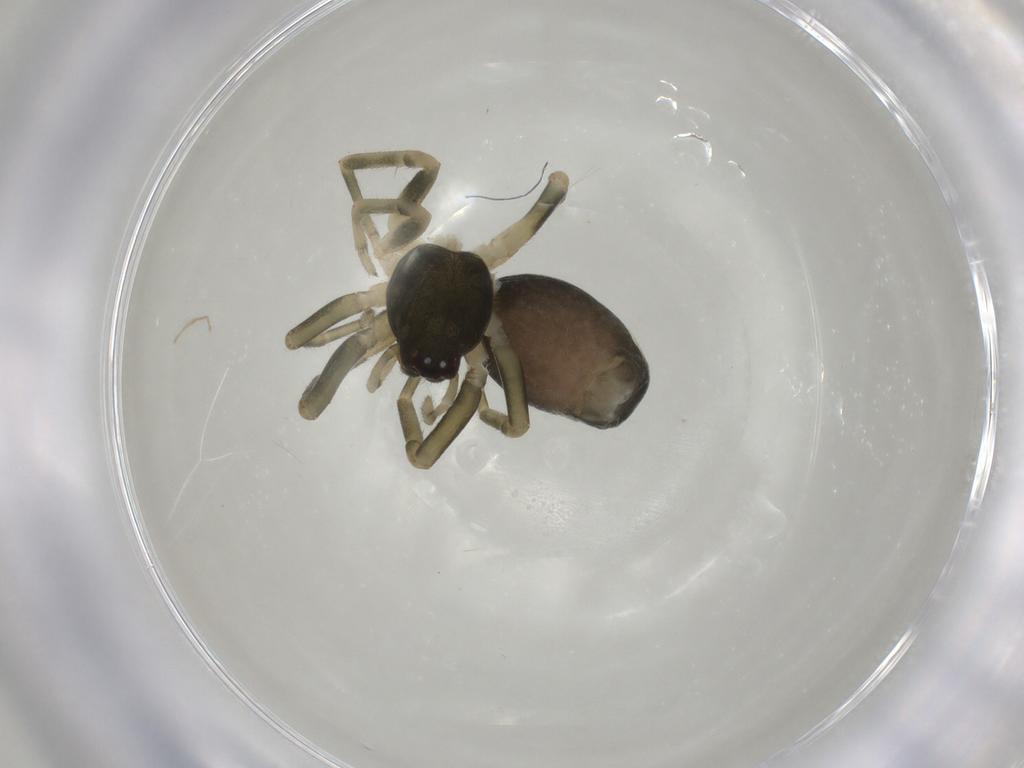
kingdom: Animalia
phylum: Arthropoda
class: Arachnida
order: Araneae
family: Trachelidae
